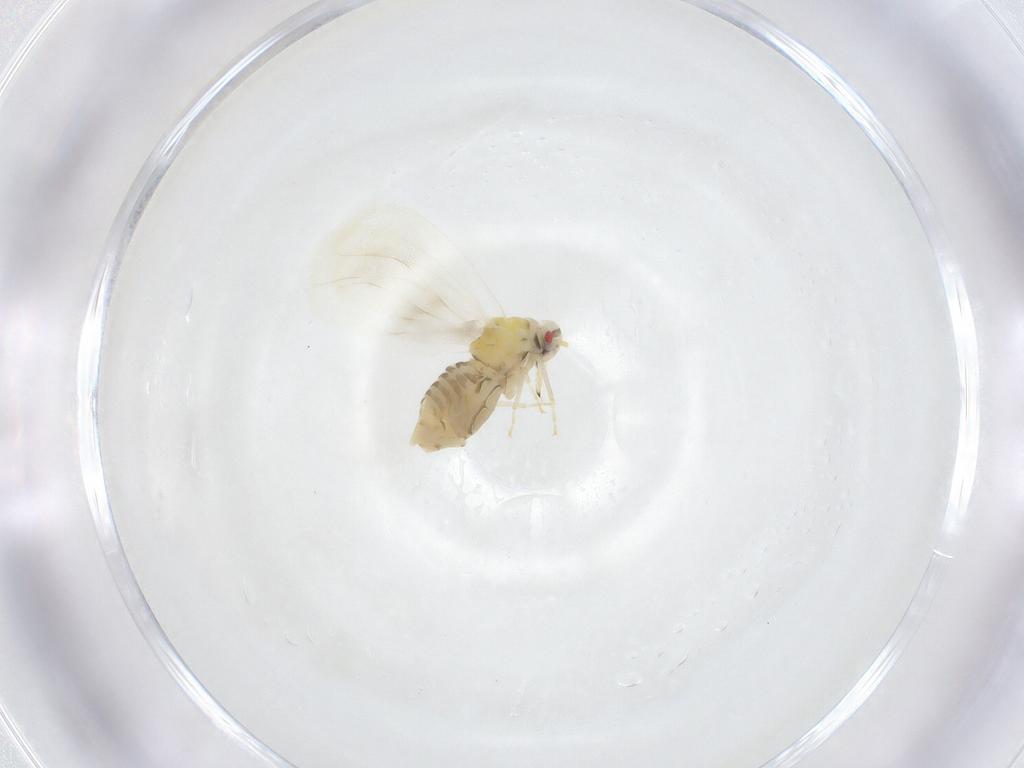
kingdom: Animalia
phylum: Arthropoda
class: Insecta
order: Hemiptera
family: Aleyrodidae
